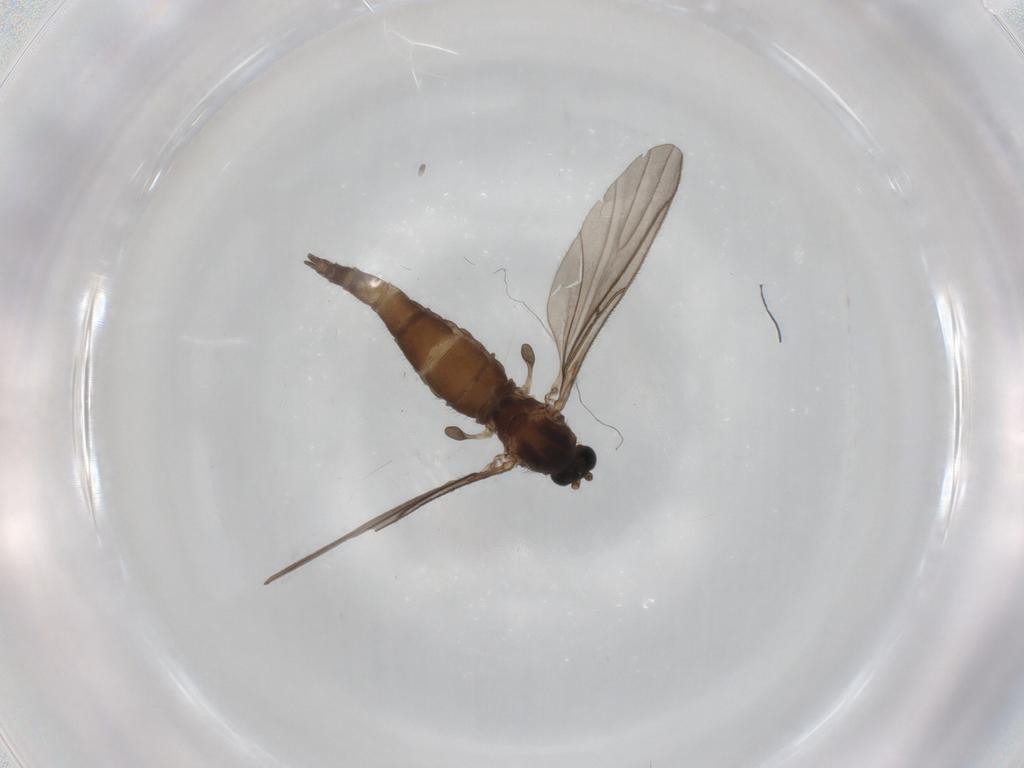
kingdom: Animalia
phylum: Arthropoda
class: Insecta
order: Diptera
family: Sciaridae
